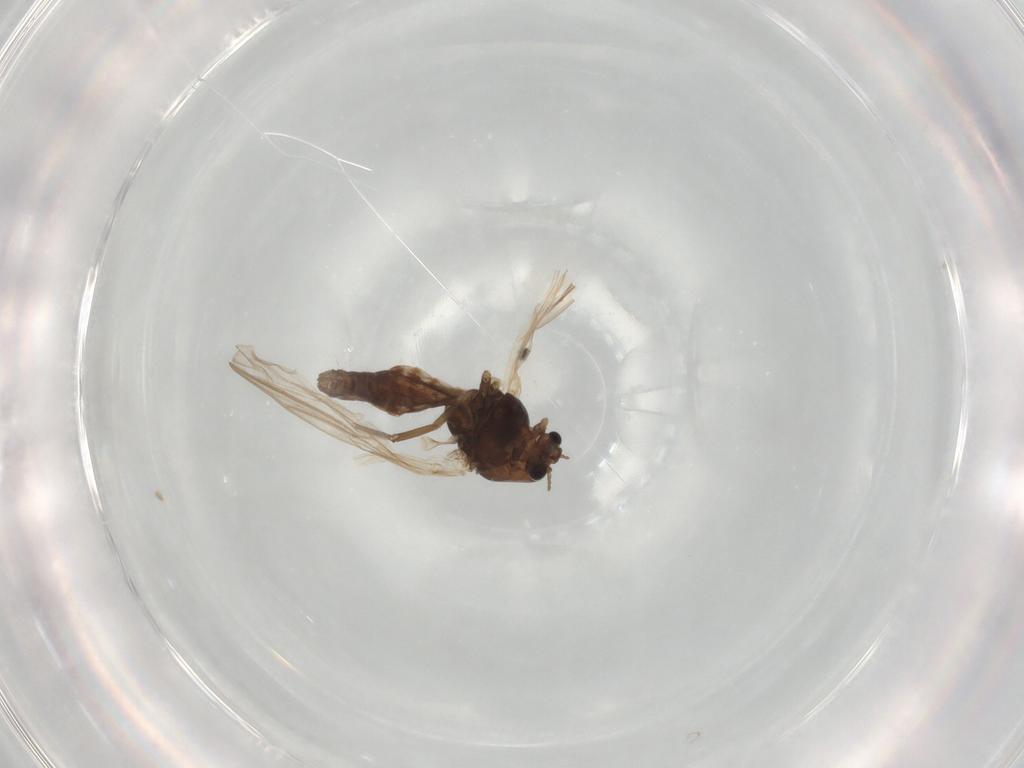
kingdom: Animalia
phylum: Arthropoda
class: Insecta
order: Diptera
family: Chironomidae
